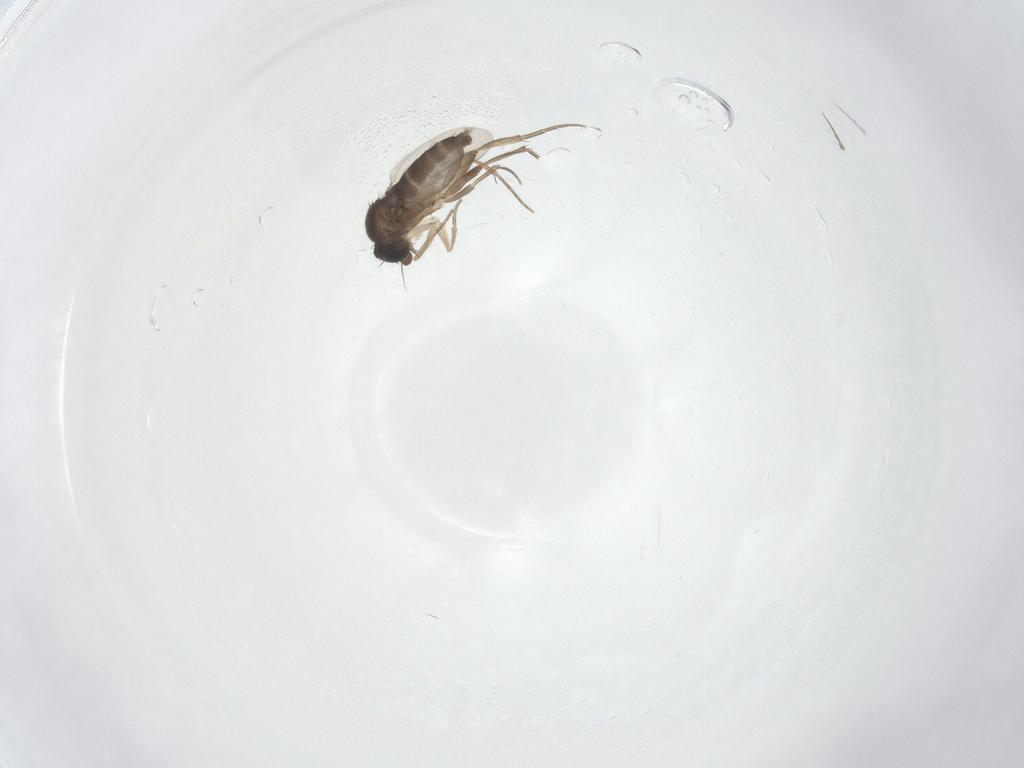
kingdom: Animalia
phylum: Arthropoda
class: Insecta
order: Diptera
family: Phoridae
